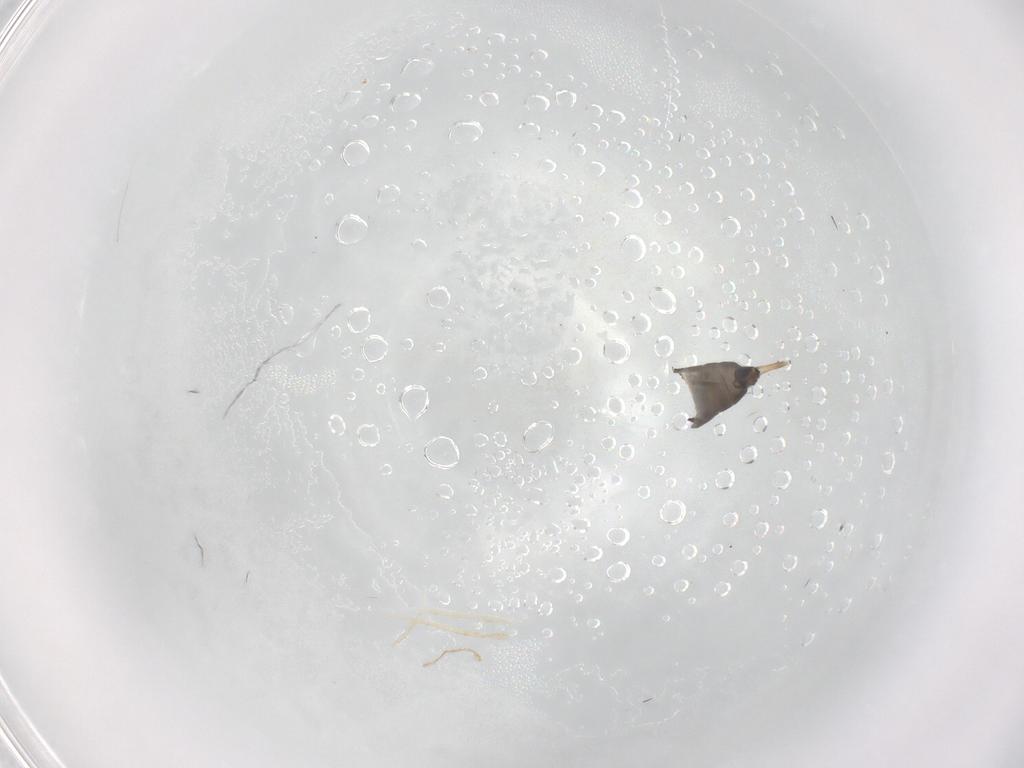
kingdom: Animalia
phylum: Arthropoda
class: Insecta
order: Diptera
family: Phoridae
